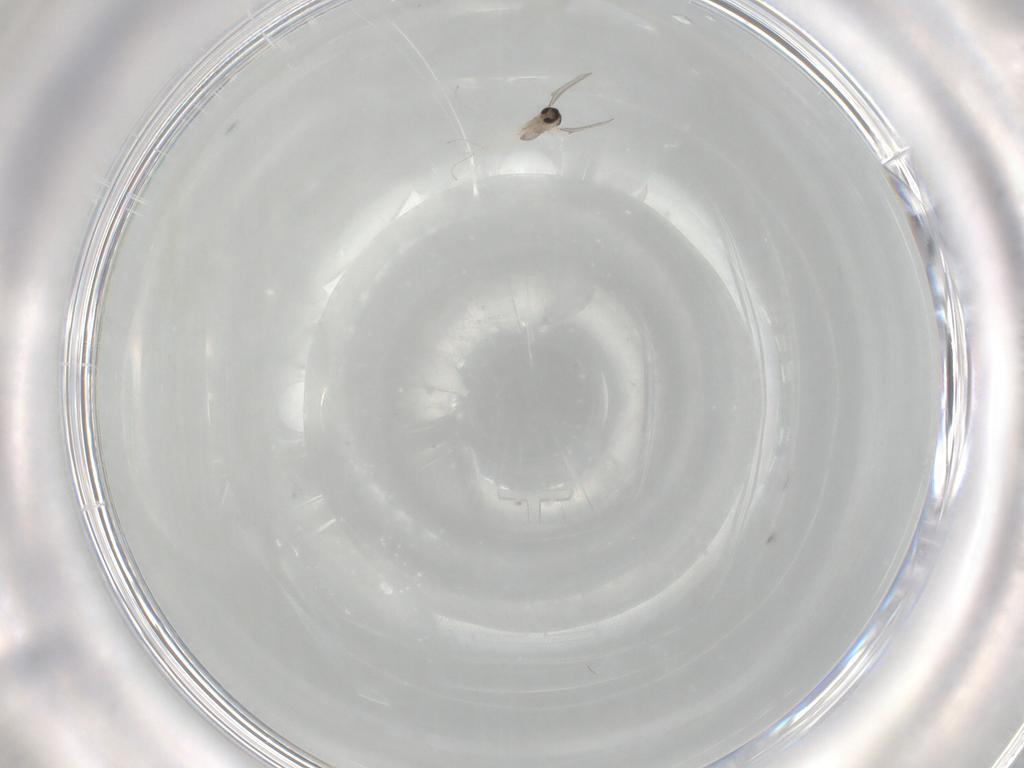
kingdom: Animalia
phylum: Arthropoda
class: Insecta
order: Diptera
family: Cecidomyiidae
